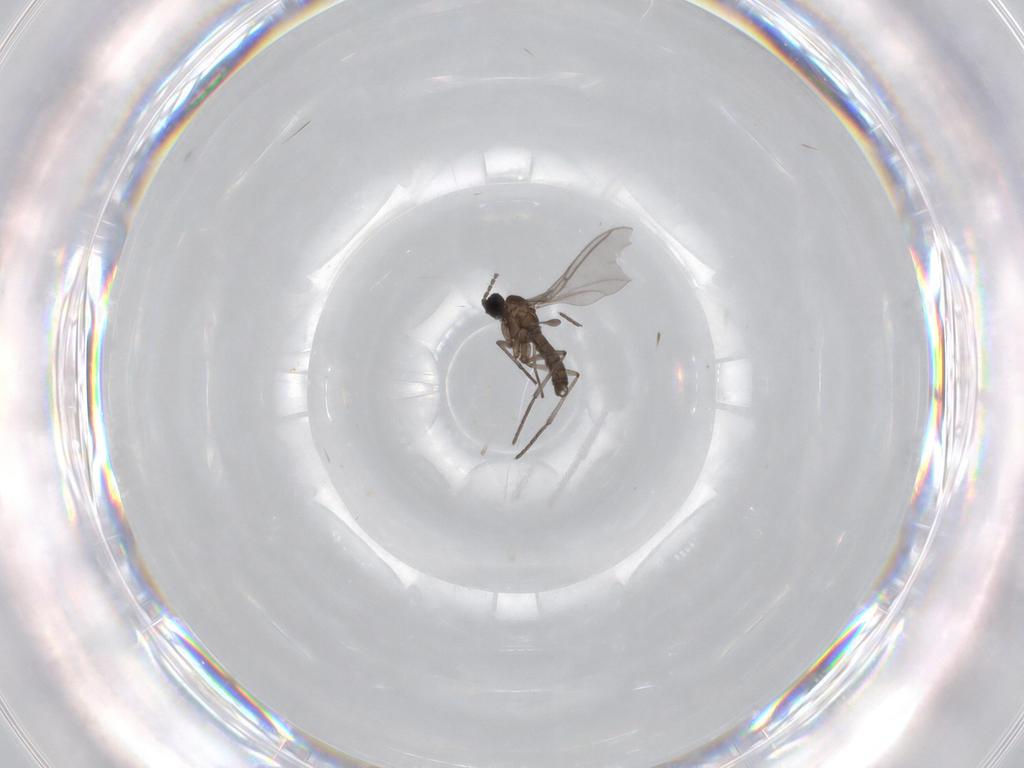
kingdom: Animalia
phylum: Arthropoda
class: Insecta
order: Diptera
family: Sciaridae
